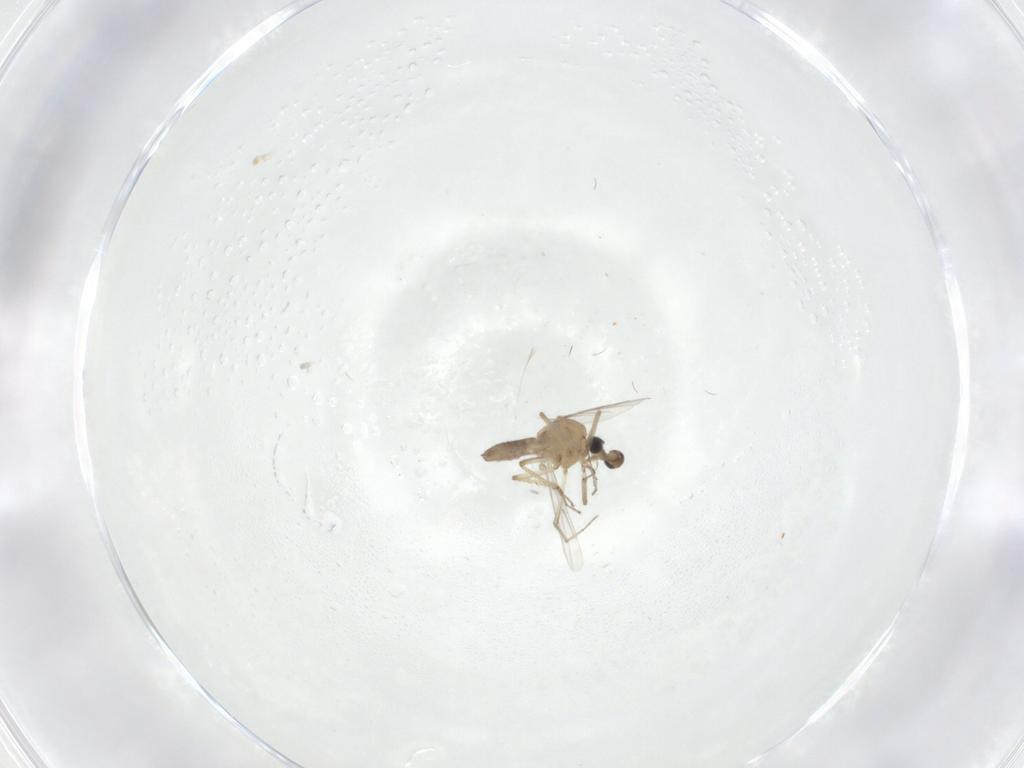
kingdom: Animalia
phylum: Arthropoda
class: Insecta
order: Diptera
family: Ceratopogonidae
